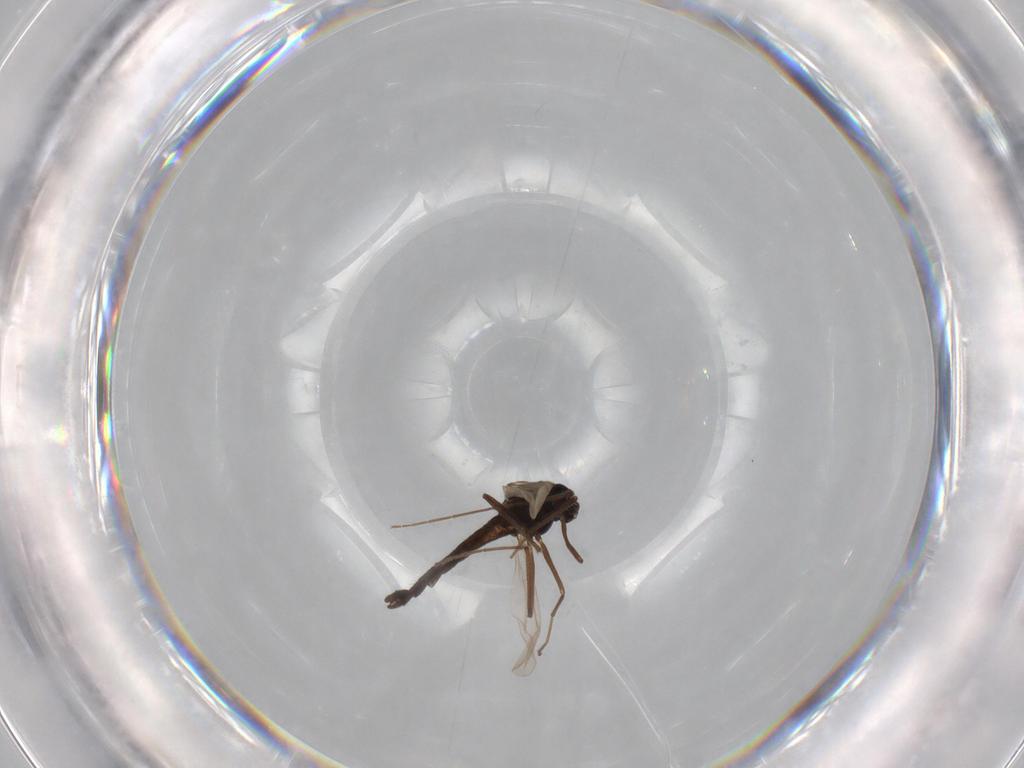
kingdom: Animalia
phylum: Arthropoda
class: Insecta
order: Diptera
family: Chironomidae
